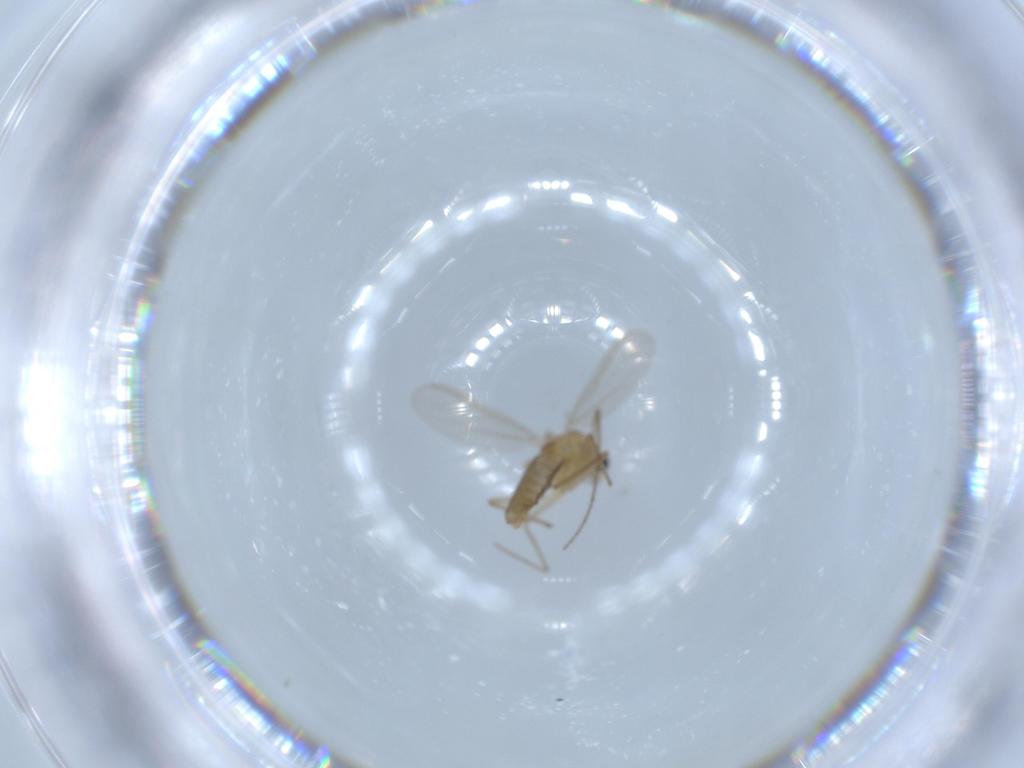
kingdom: Animalia
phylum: Arthropoda
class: Insecta
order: Diptera
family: Chironomidae
